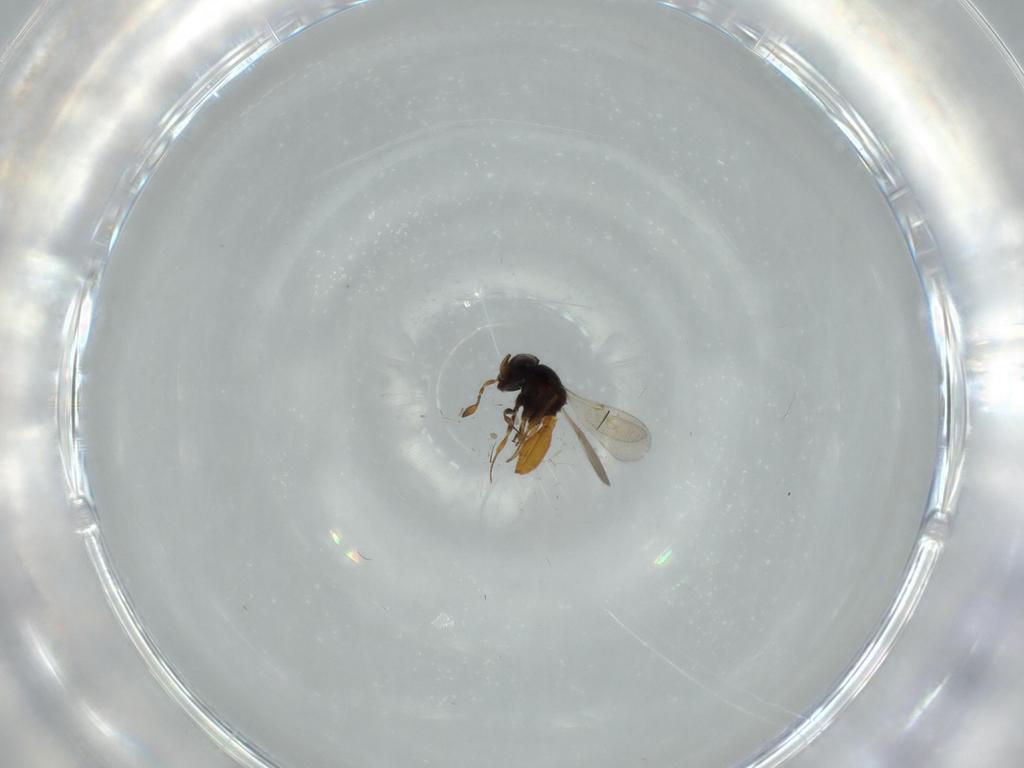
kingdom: Animalia
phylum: Arthropoda
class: Insecta
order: Hymenoptera
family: Scelionidae
